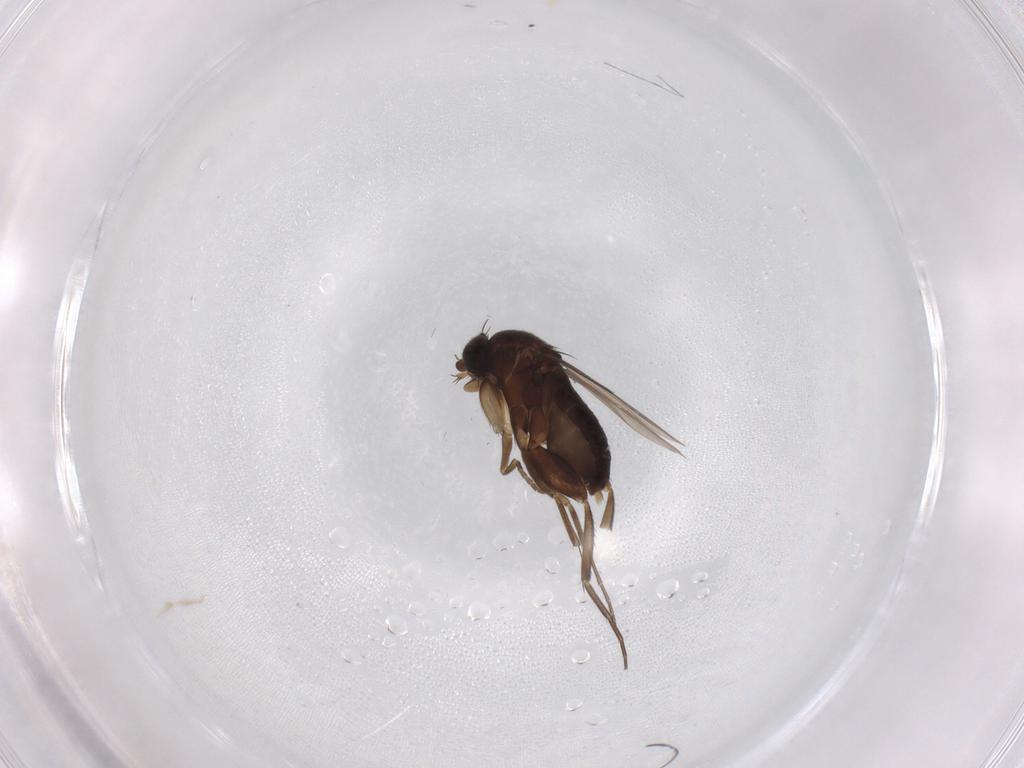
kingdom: Animalia
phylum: Arthropoda
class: Insecta
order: Diptera
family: Phoridae
